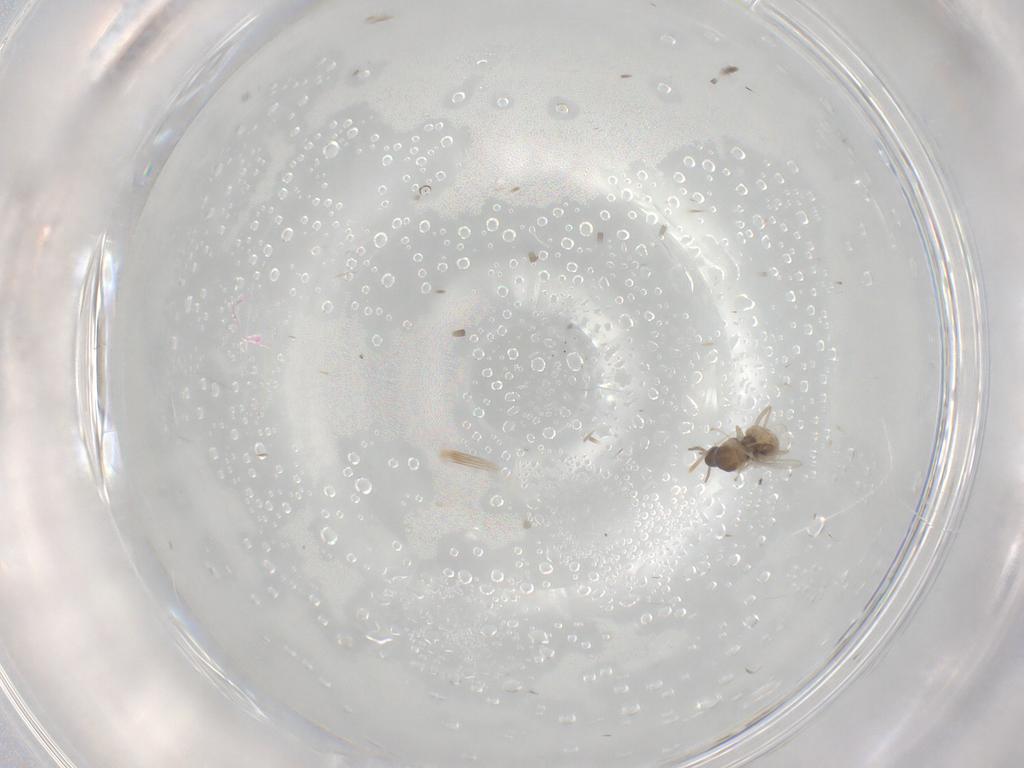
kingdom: Animalia
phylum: Arthropoda
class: Insecta
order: Diptera
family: Cecidomyiidae
